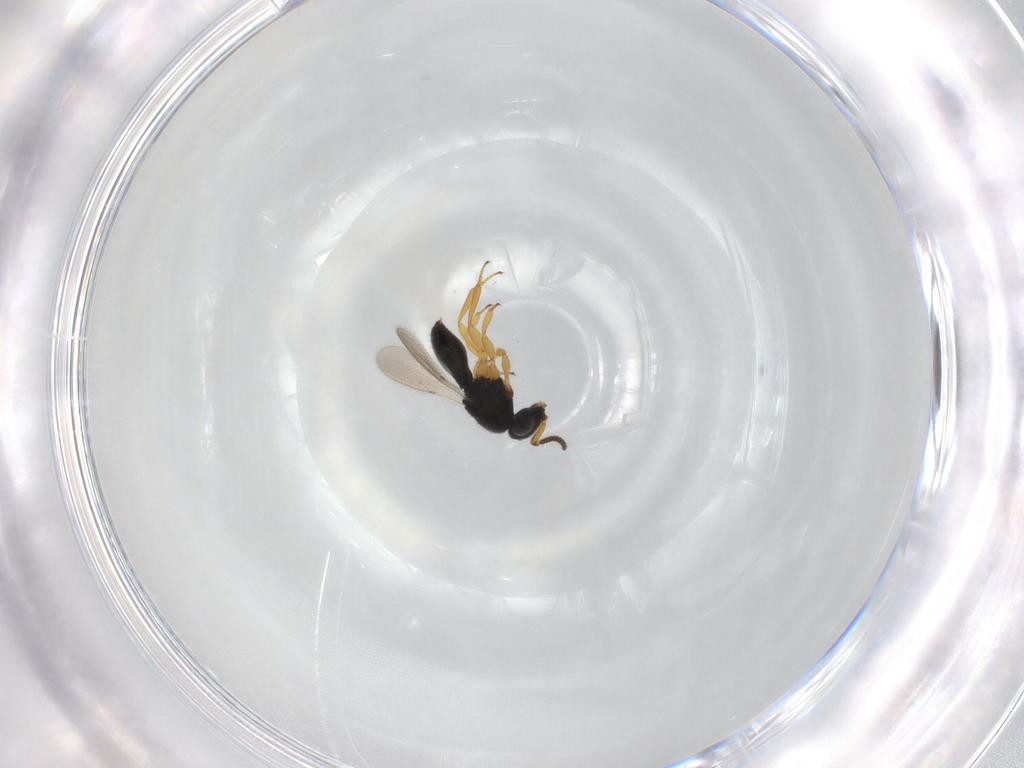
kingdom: Animalia
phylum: Arthropoda
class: Insecta
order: Hymenoptera
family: Scelionidae
